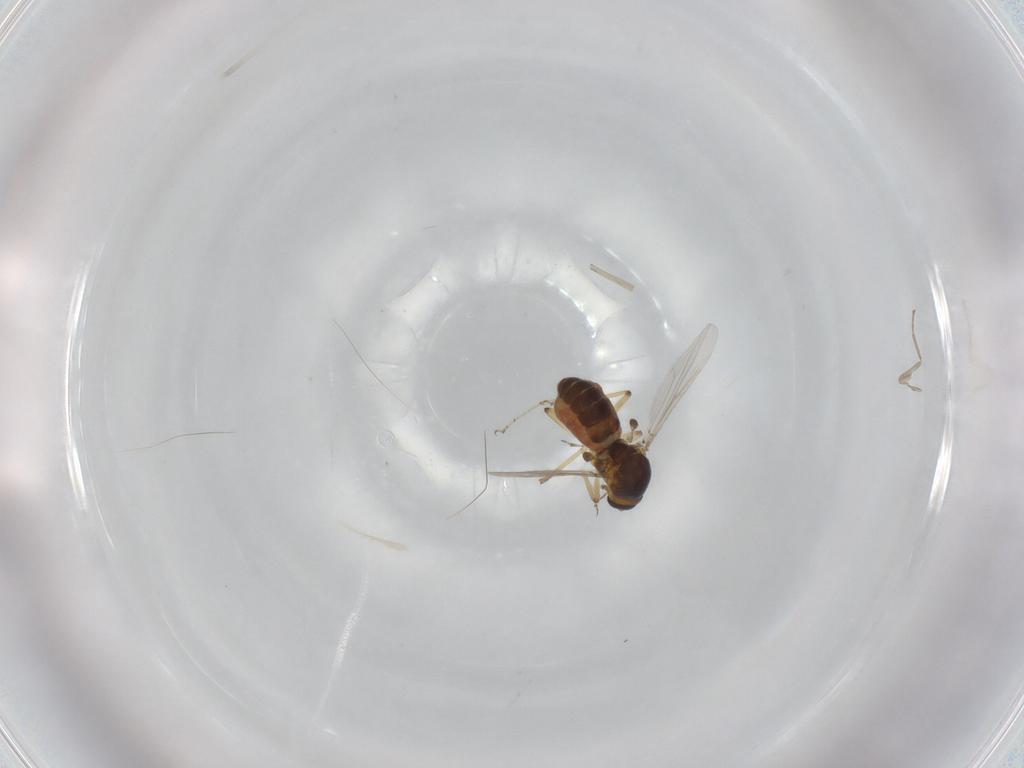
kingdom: Animalia
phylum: Arthropoda
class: Insecta
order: Diptera
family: Ceratopogonidae
